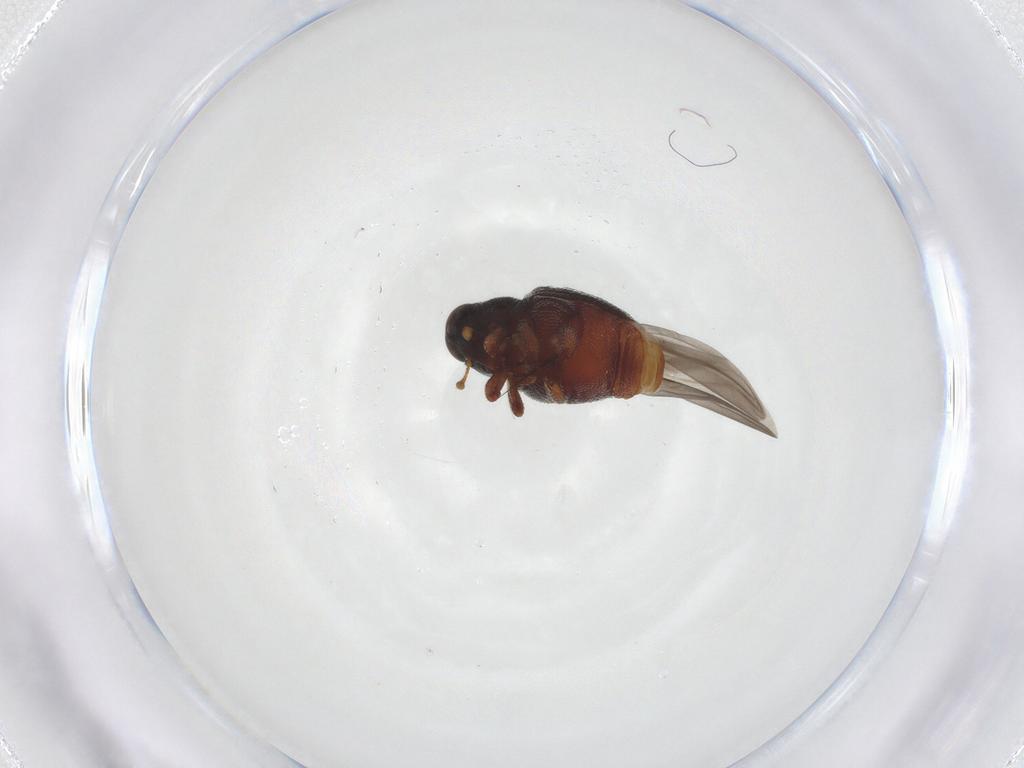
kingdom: Animalia
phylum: Arthropoda
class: Insecta
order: Coleoptera
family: Curculionidae
